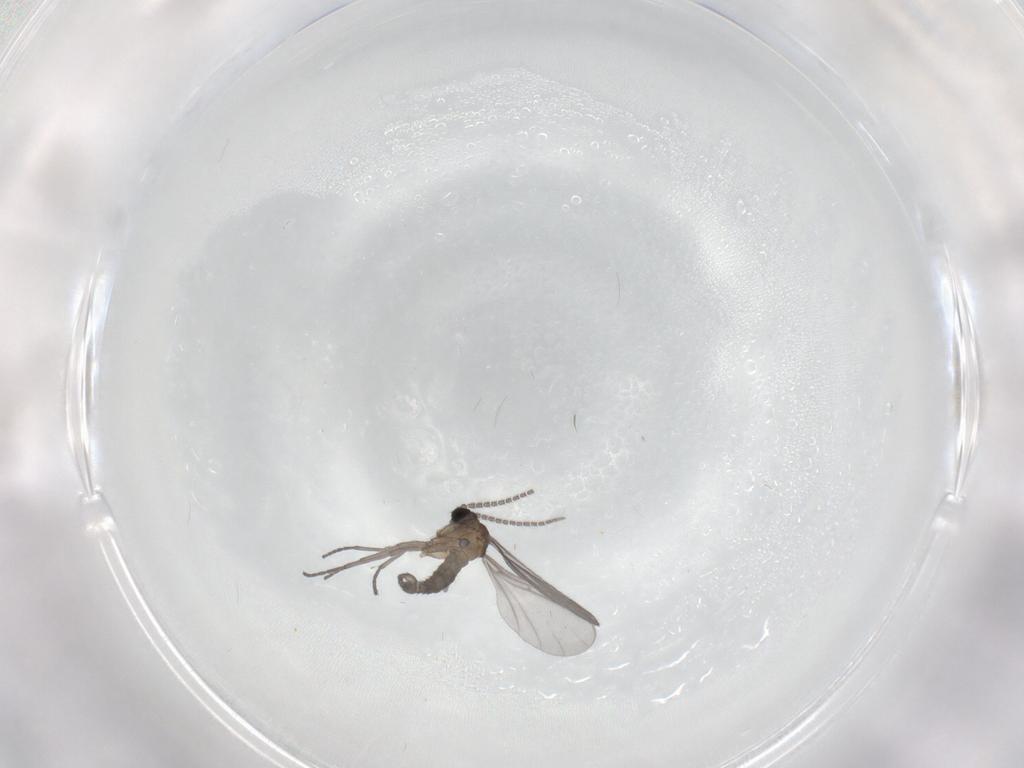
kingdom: Animalia
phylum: Arthropoda
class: Insecta
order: Diptera
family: Sciaridae
